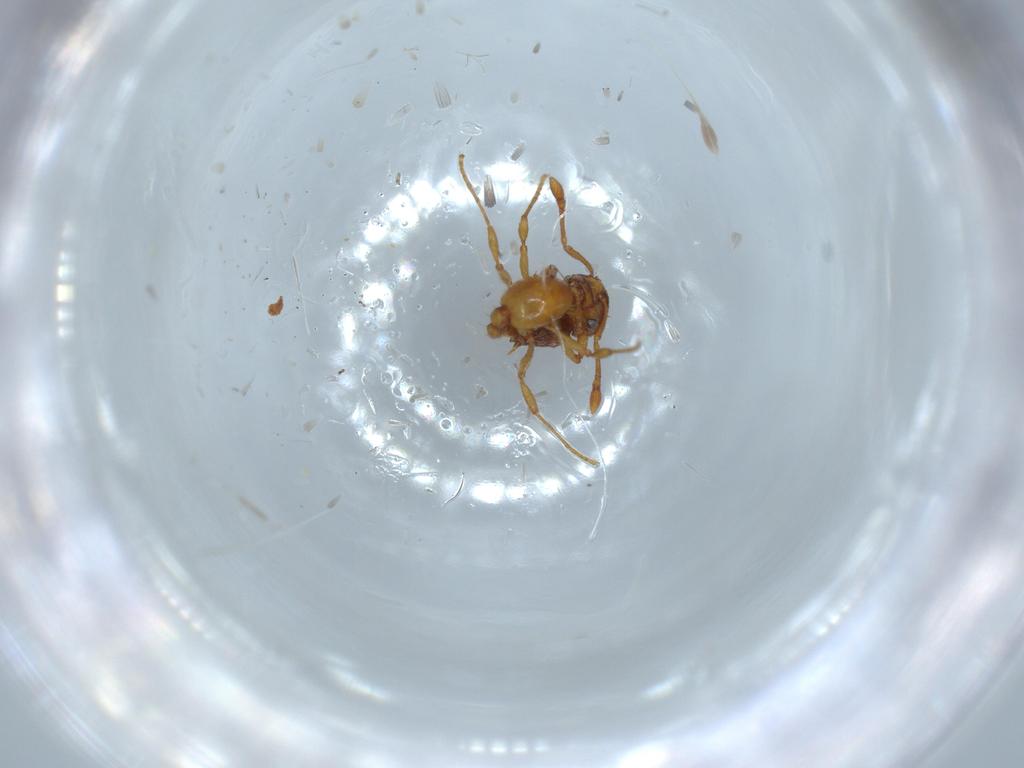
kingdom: Animalia
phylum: Arthropoda
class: Insecta
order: Hymenoptera
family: Formicidae
